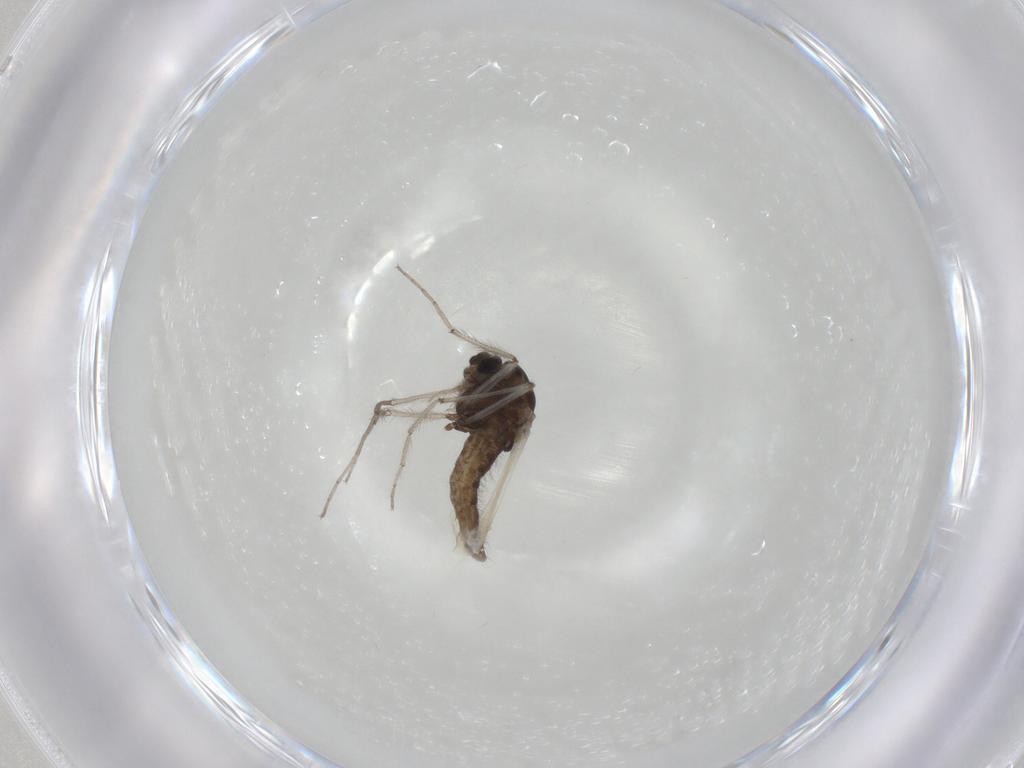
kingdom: Animalia
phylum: Arthropoda
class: Insecta
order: Diptera
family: Chironomidae
